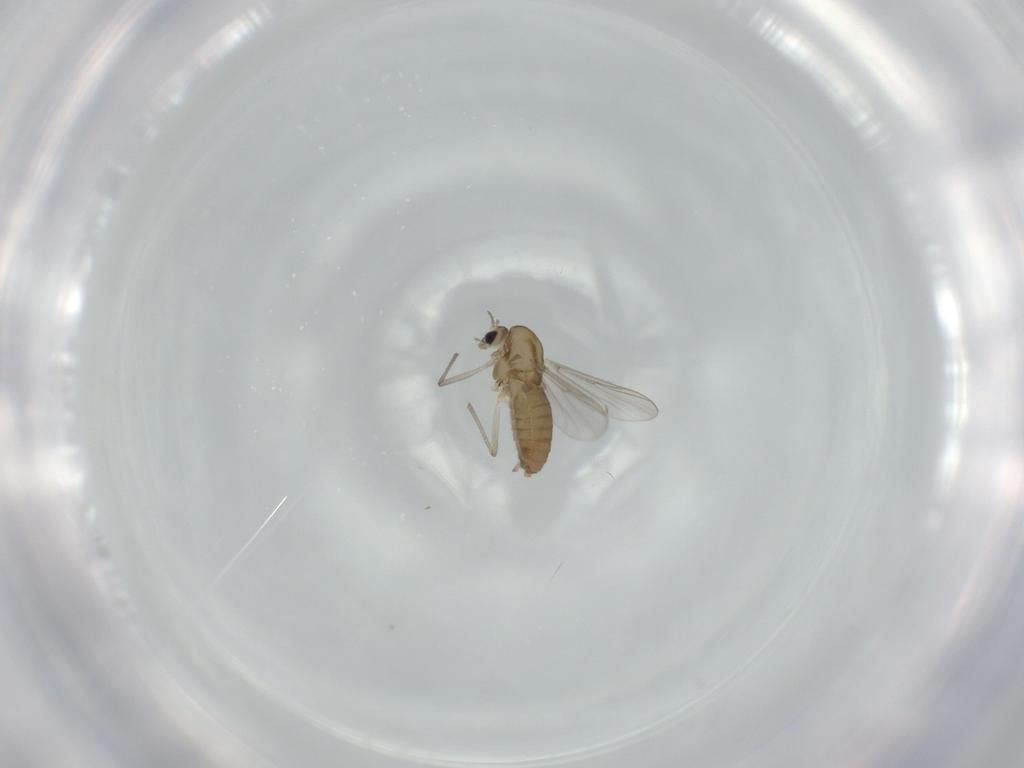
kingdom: Animalia
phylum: Arthropoda
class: Insecta
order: Diptera
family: Chironomidae
